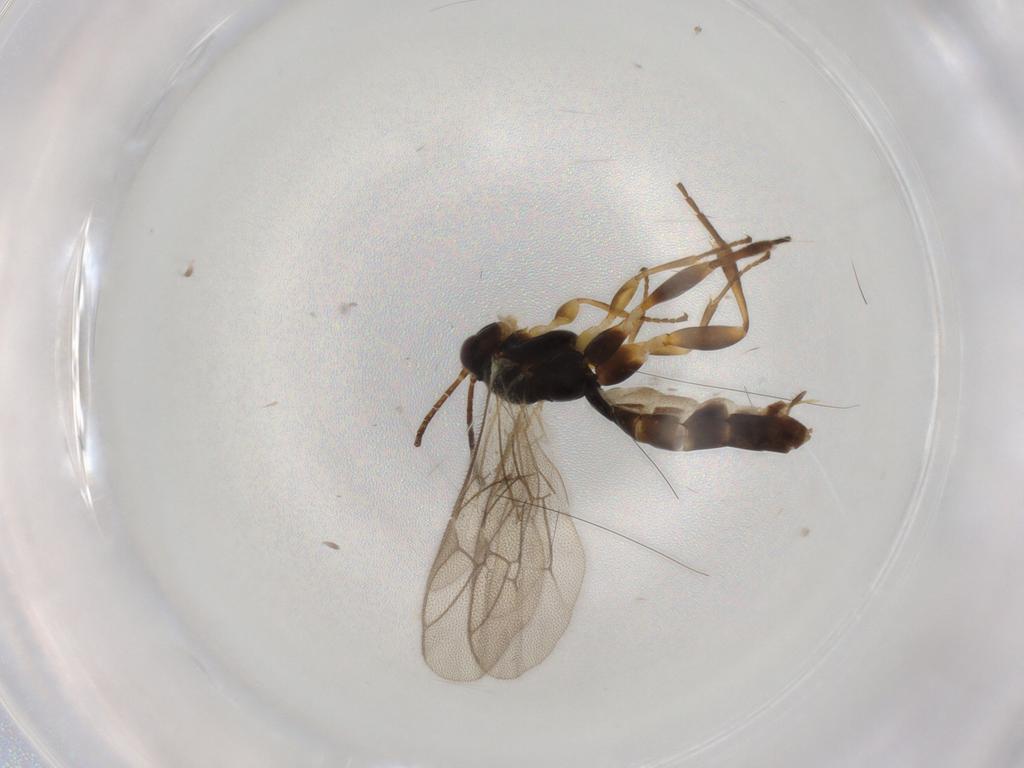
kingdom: Animalia
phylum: Arthropoda
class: Insecta
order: Hymenoptera
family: Ichneumonidae
